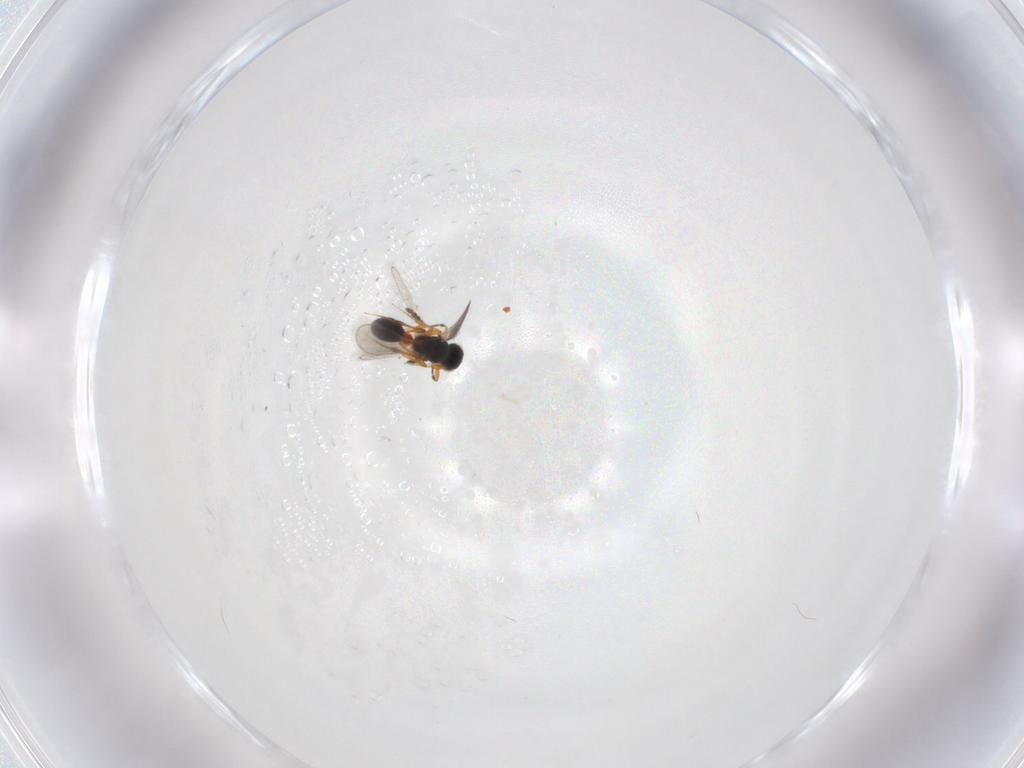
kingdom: Animalia
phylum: Arthropoda
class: Insecta
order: Hymenoptera
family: Platygastridae
